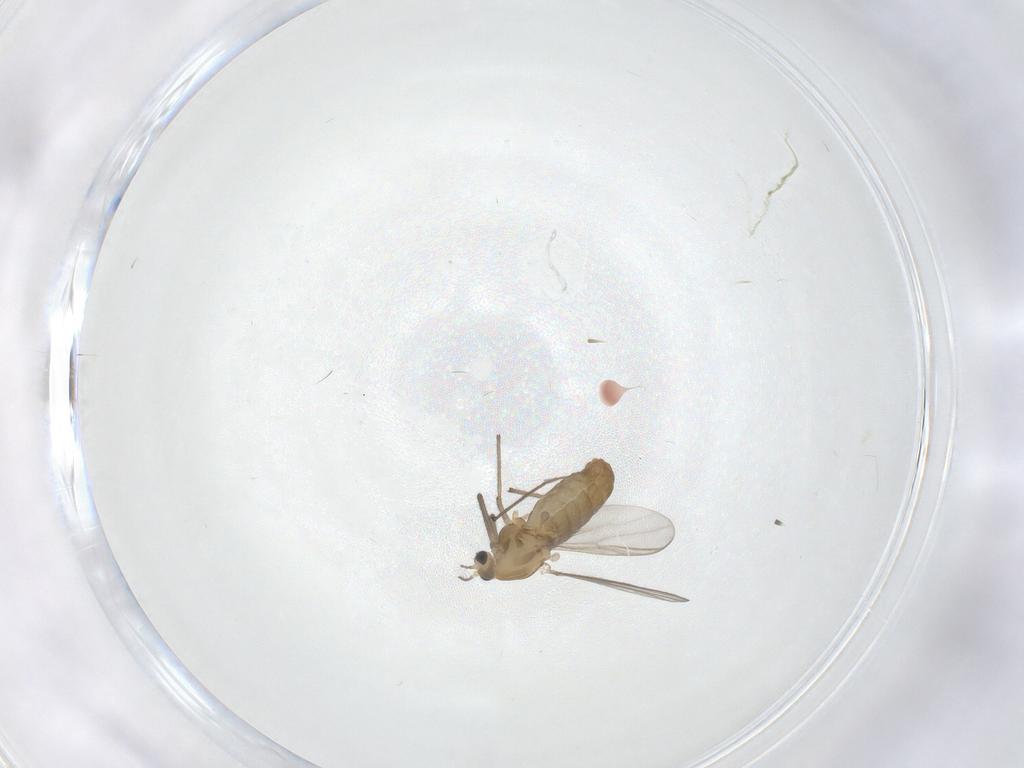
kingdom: Animalia
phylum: Arthropoda
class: Insecta
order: Diptera
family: Chironomidae
